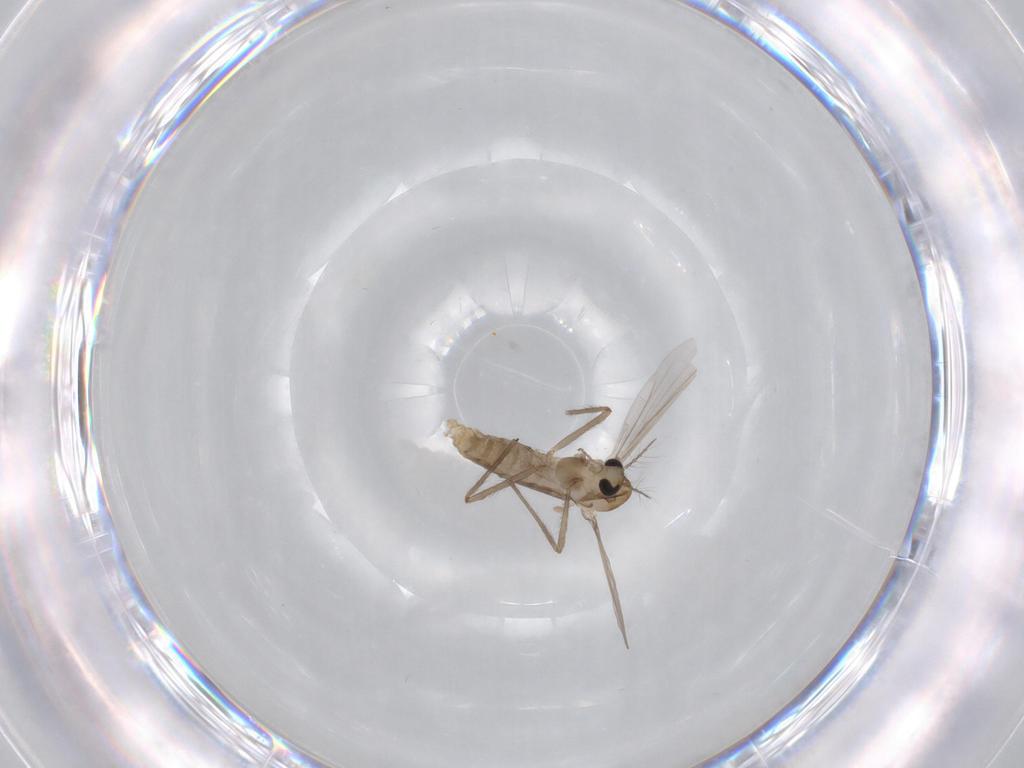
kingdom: Animalia
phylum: Arthropoda
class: Insecta
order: Diptera
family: Chironomidae
